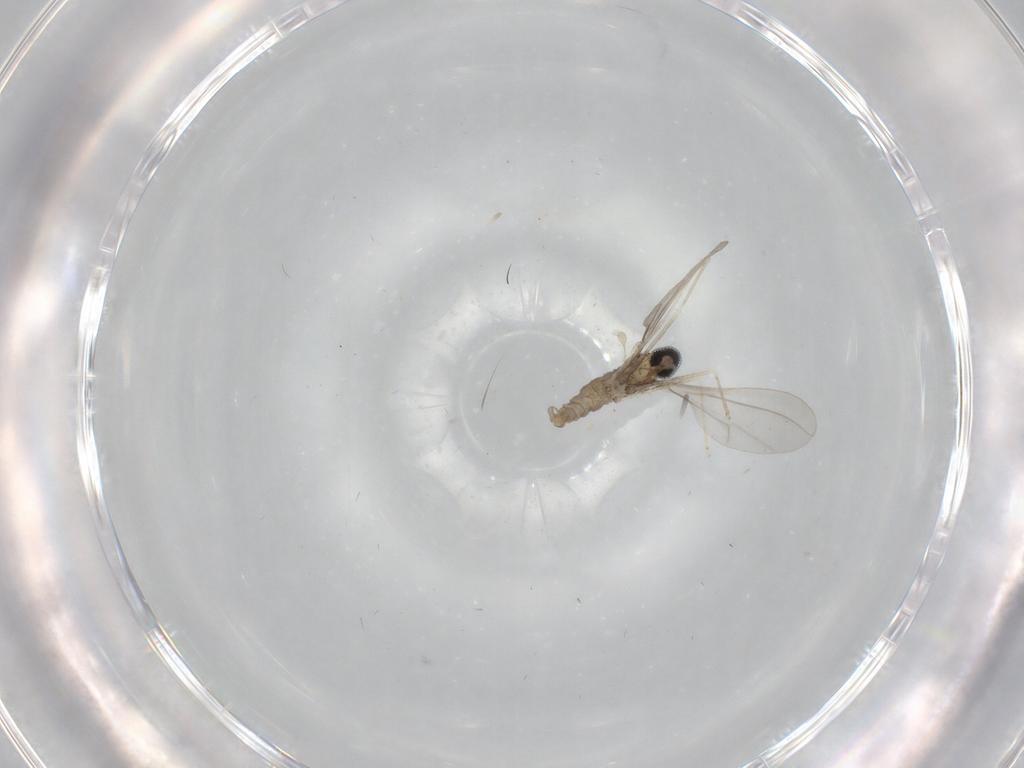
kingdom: Animalia
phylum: Arthropoda
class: Insecta
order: Diptera
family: Cecidomyiidae
